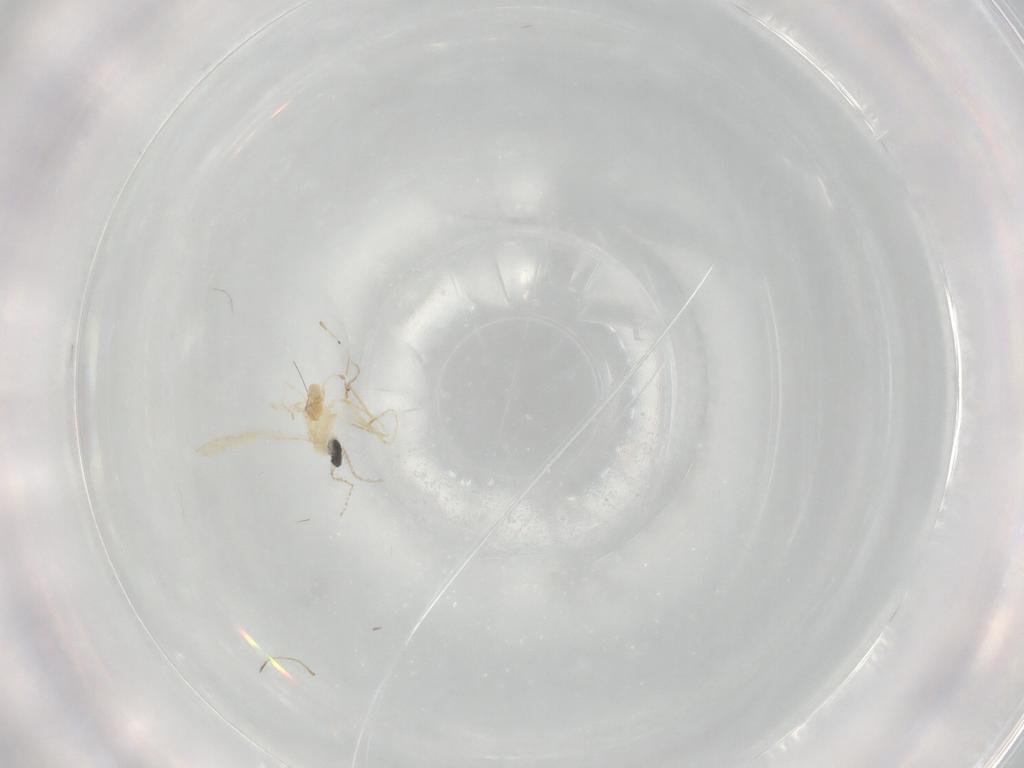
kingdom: Animalia
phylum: Arthropoda
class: Insecta
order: Diptera
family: Cecidomyiidae
